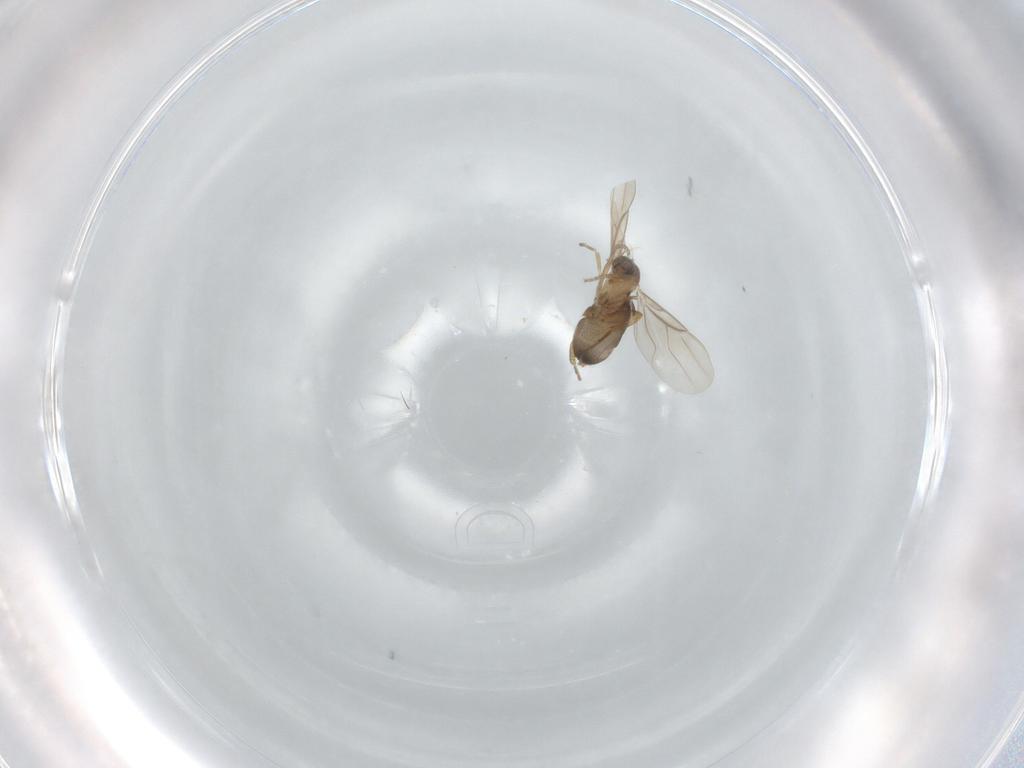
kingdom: Animalia
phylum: Arthropoda
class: Insecta
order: Diptera
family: Phoridae
